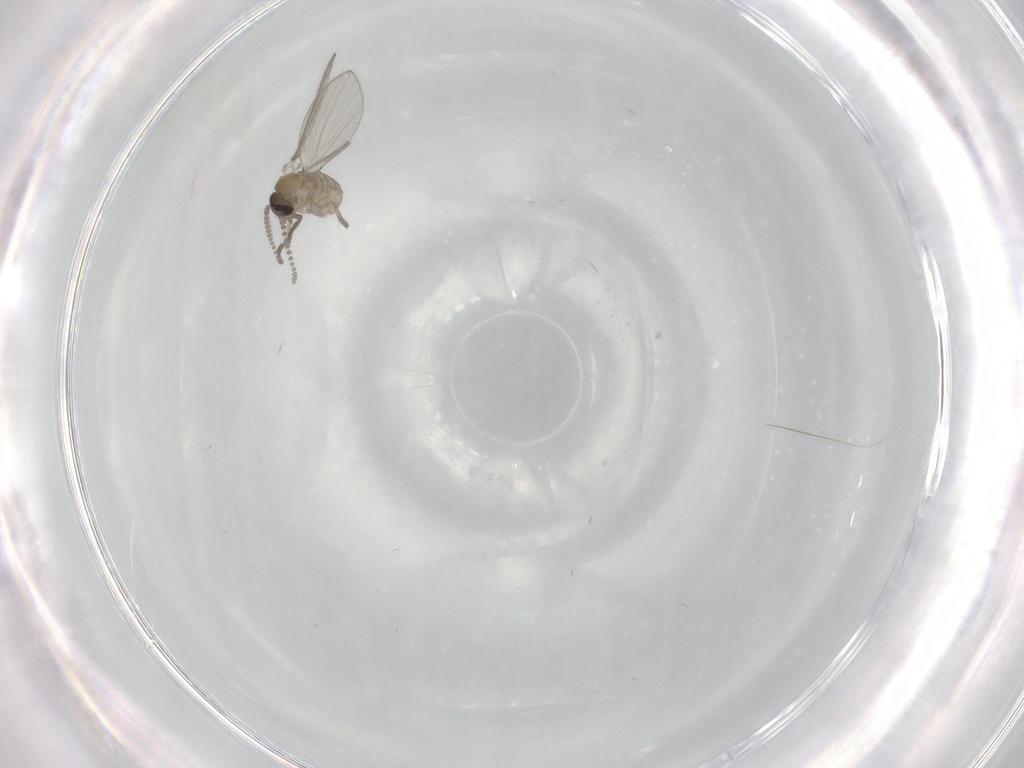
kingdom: Animalia
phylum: Arthropoda
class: Insecta
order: Diptera
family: Psychodidae
